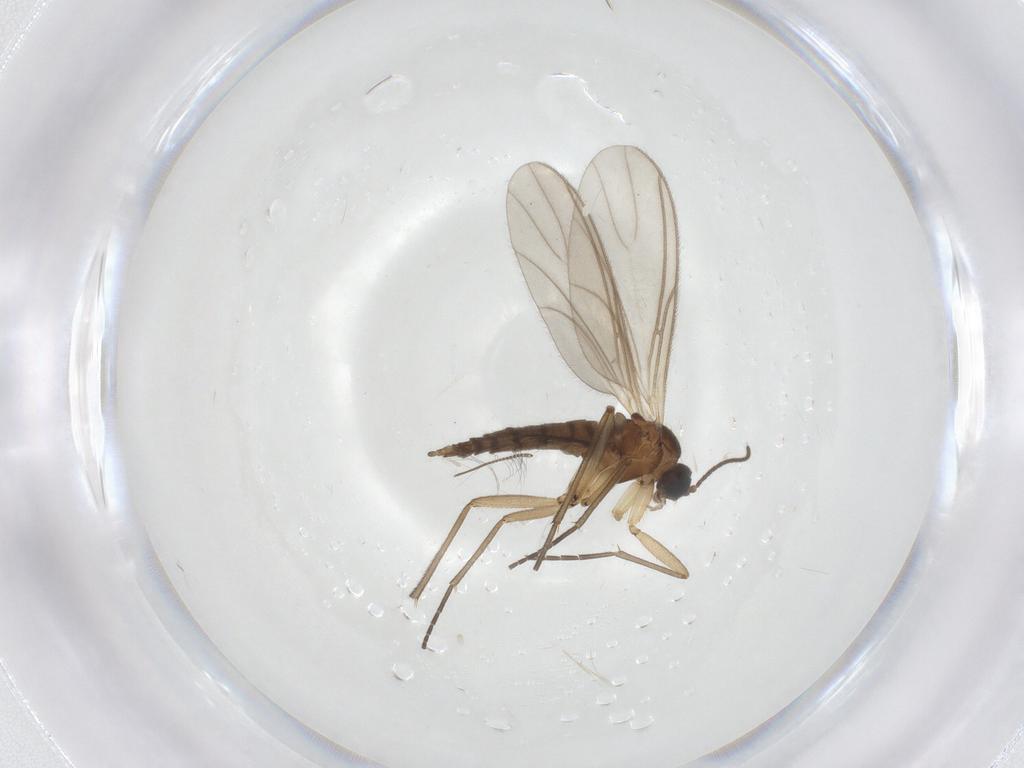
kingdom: Animalia
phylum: Arthropoda
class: Insecta
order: Diptera
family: Sciaridae
